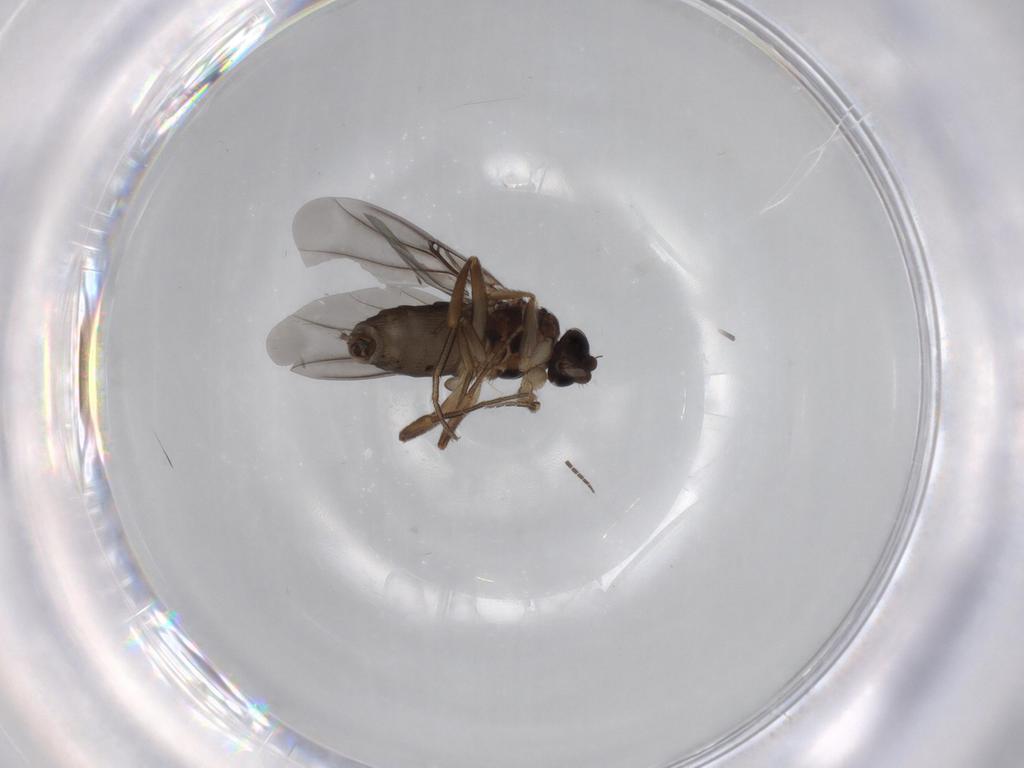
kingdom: Animalia
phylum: Arthropoda
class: Insecta
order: Diptera
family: Phoridae
